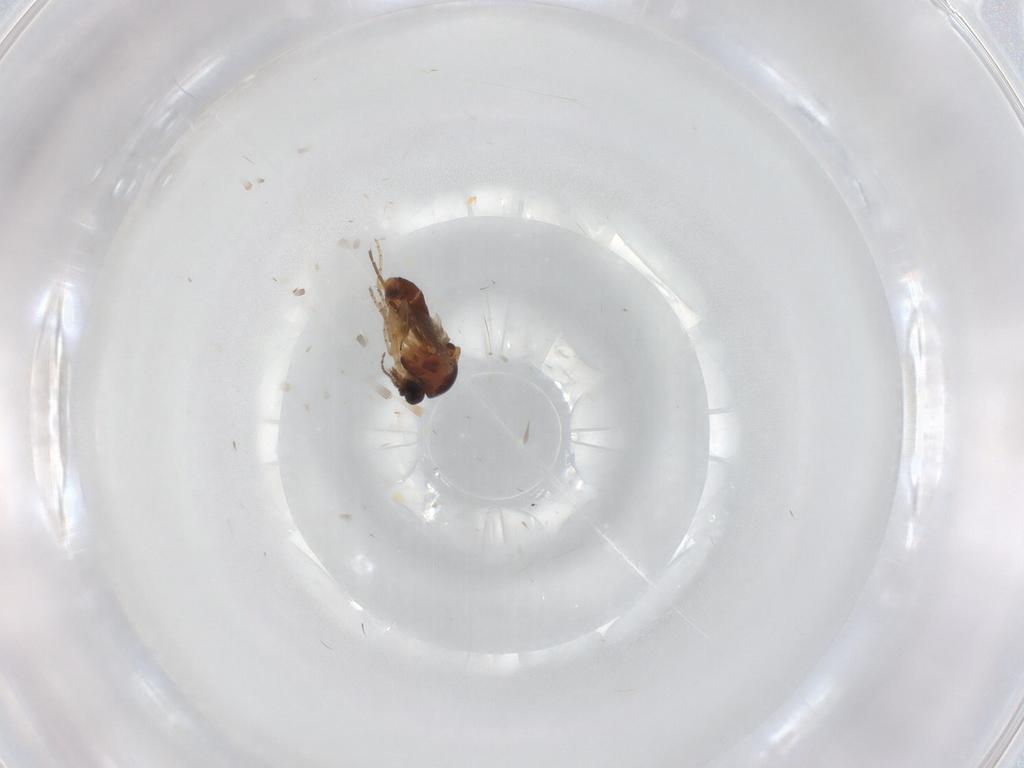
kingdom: Animalia
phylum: Arthropoda
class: Insecta
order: Diptera
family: Ceratopogonidae
